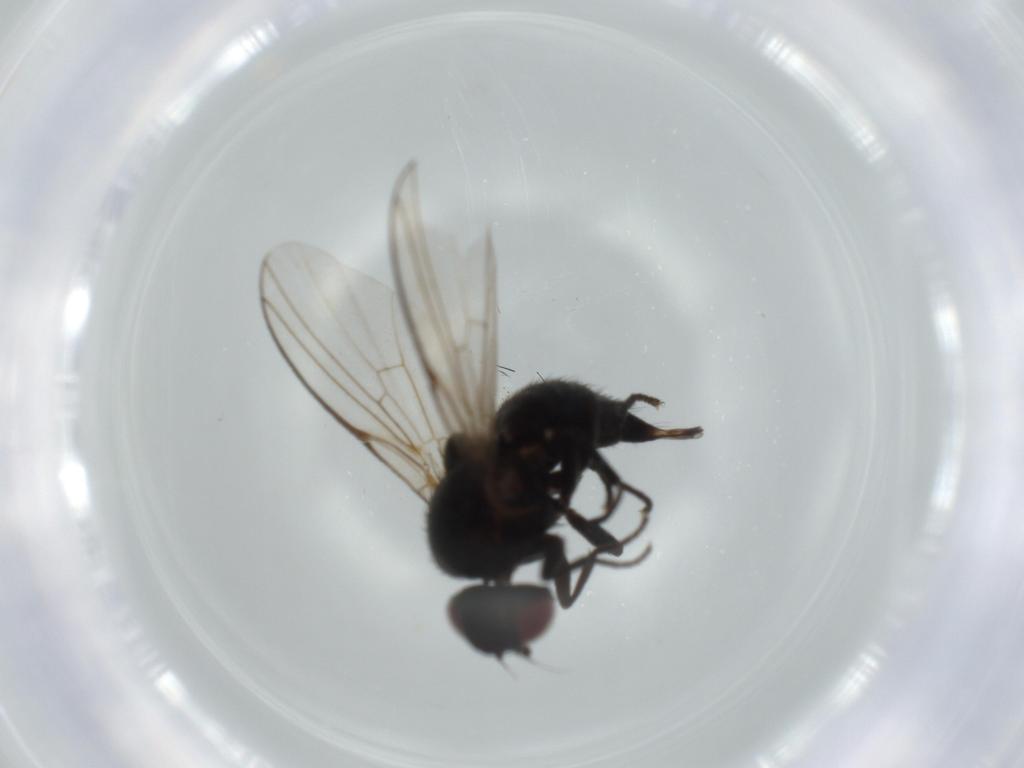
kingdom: Animalia
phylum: Arthropoda
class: Insecta
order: Diptera
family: Agromyzidae
